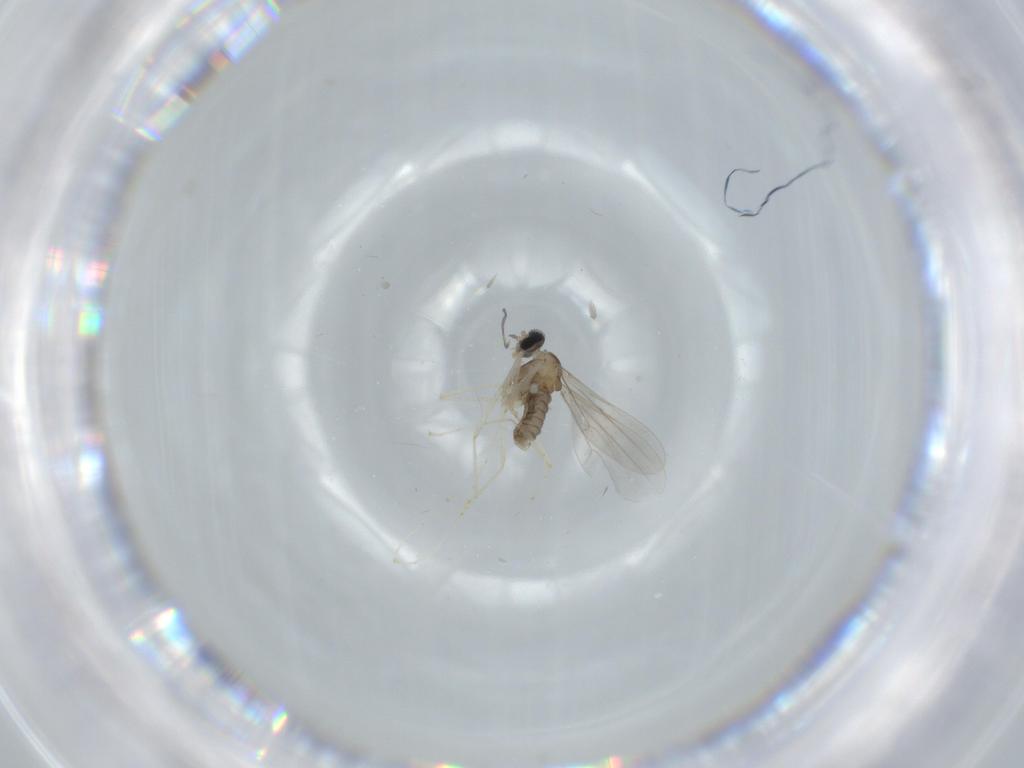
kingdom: Animalia
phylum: Arthropoda
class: Insecta
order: Diptera
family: Cecidomyiidae
